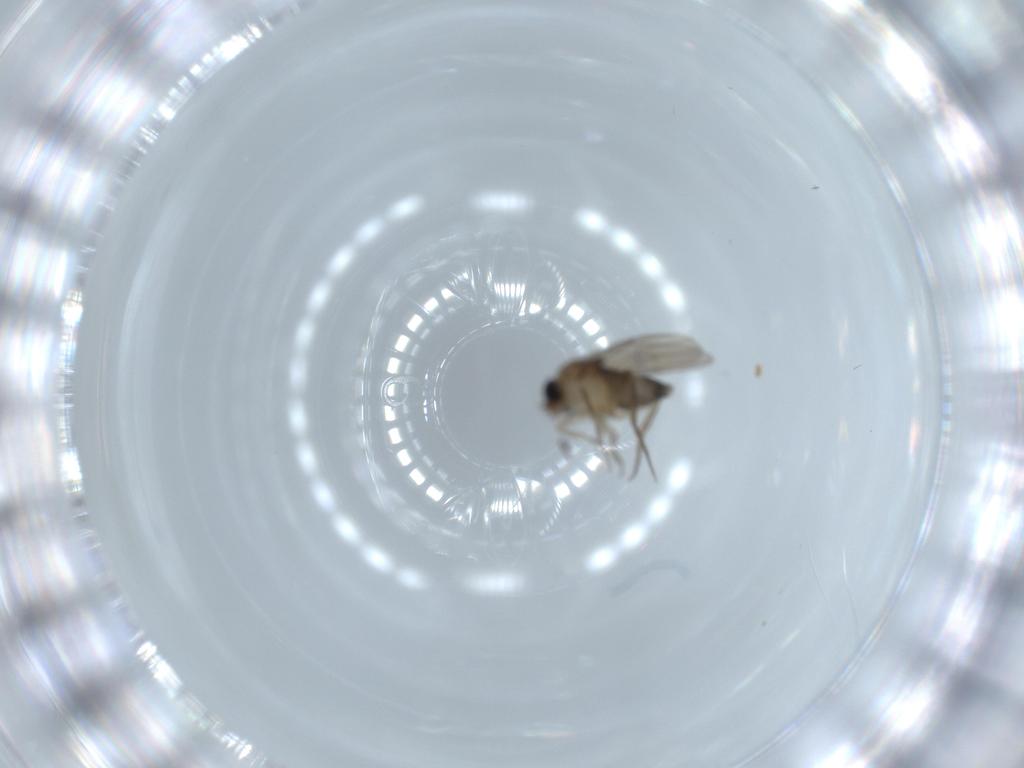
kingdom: Animalia
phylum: Arthropoda
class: Insecta
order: Diptera
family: Phoridae
